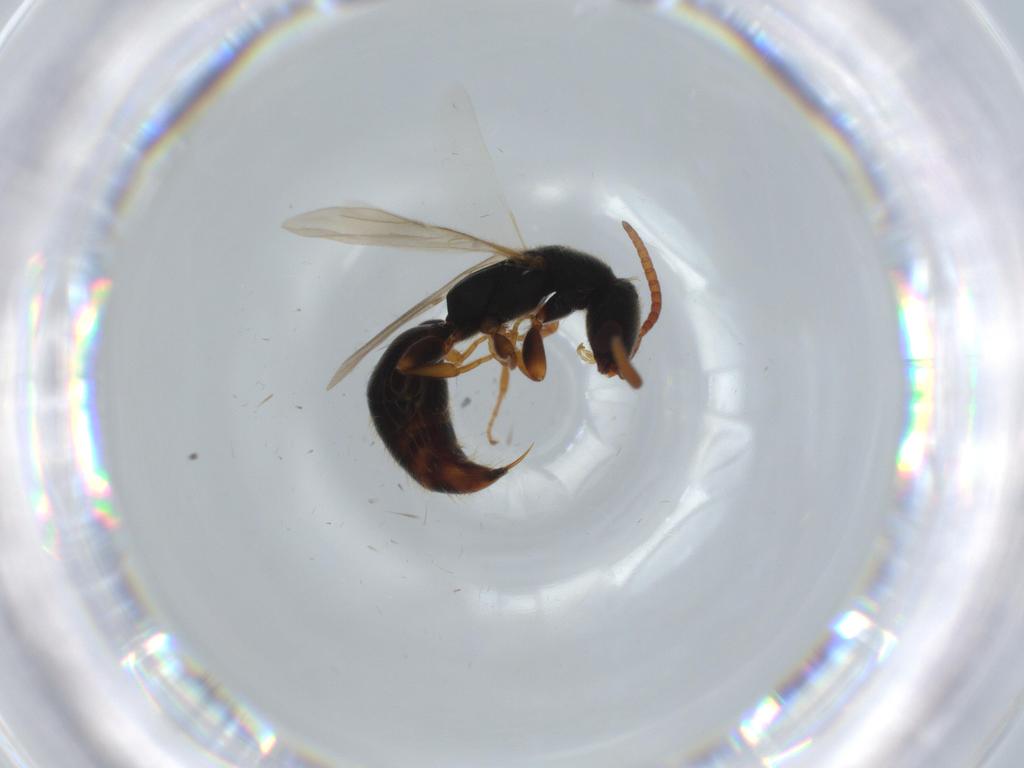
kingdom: Animalia
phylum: Arthropoda
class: Insecta
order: Hymenoptera
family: Bethylidae
